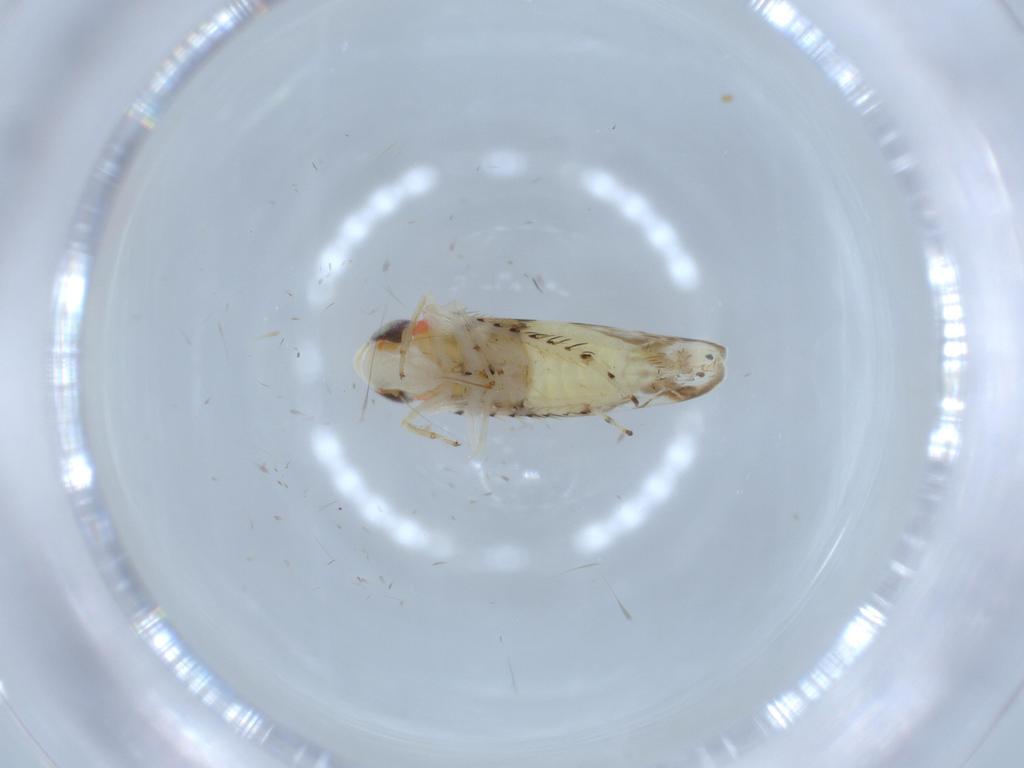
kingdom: Animalia
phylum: Arthropoda
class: Insecta
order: Hemiptera
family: Cicadellidae
